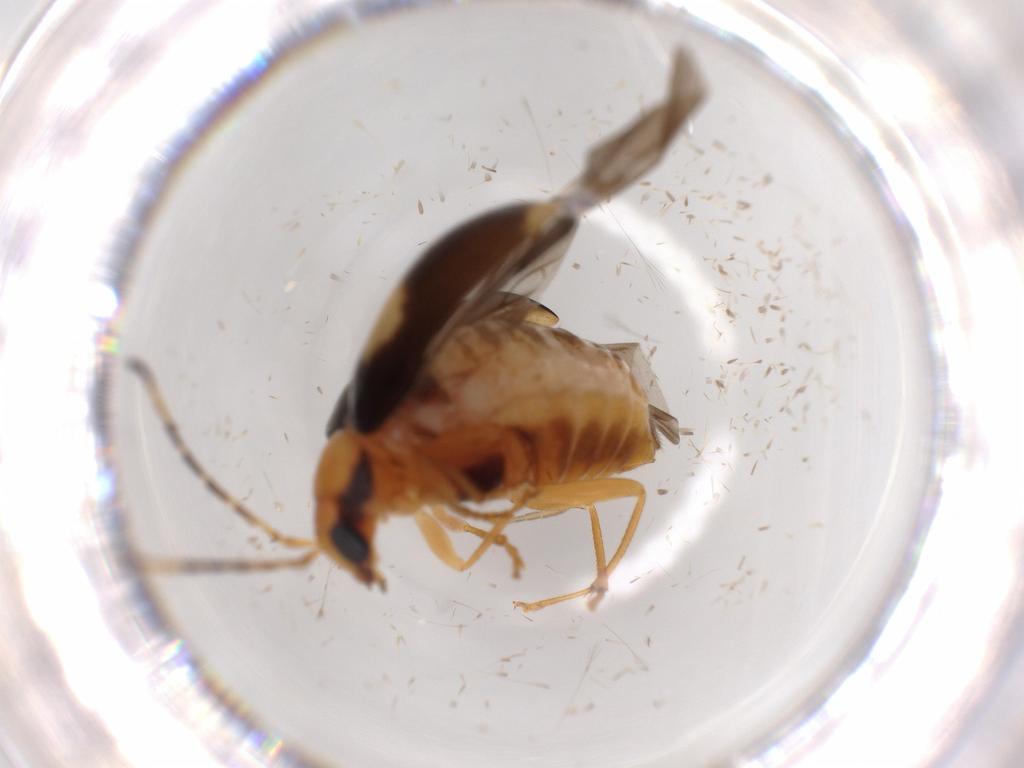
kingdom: Animalia
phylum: Arthropoda
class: Insecta
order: Coleoptera
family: Chrysomelidae
